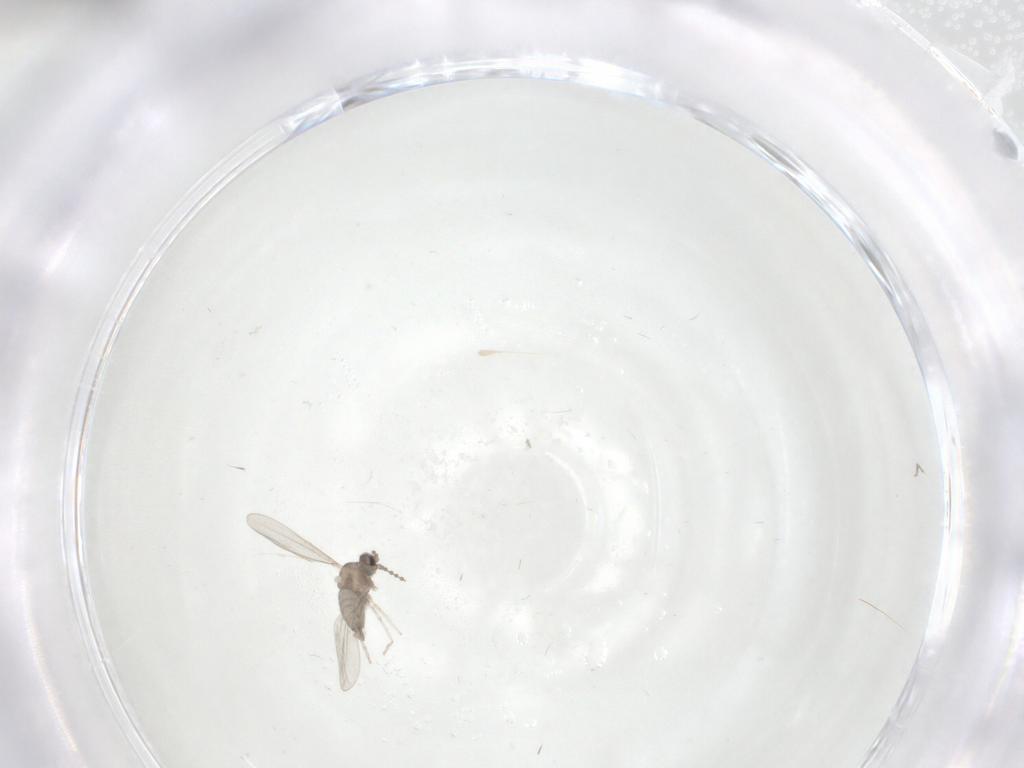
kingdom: Animalia
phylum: Arthropoda
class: Insecta
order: Diptera
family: Cecidomyiidae
